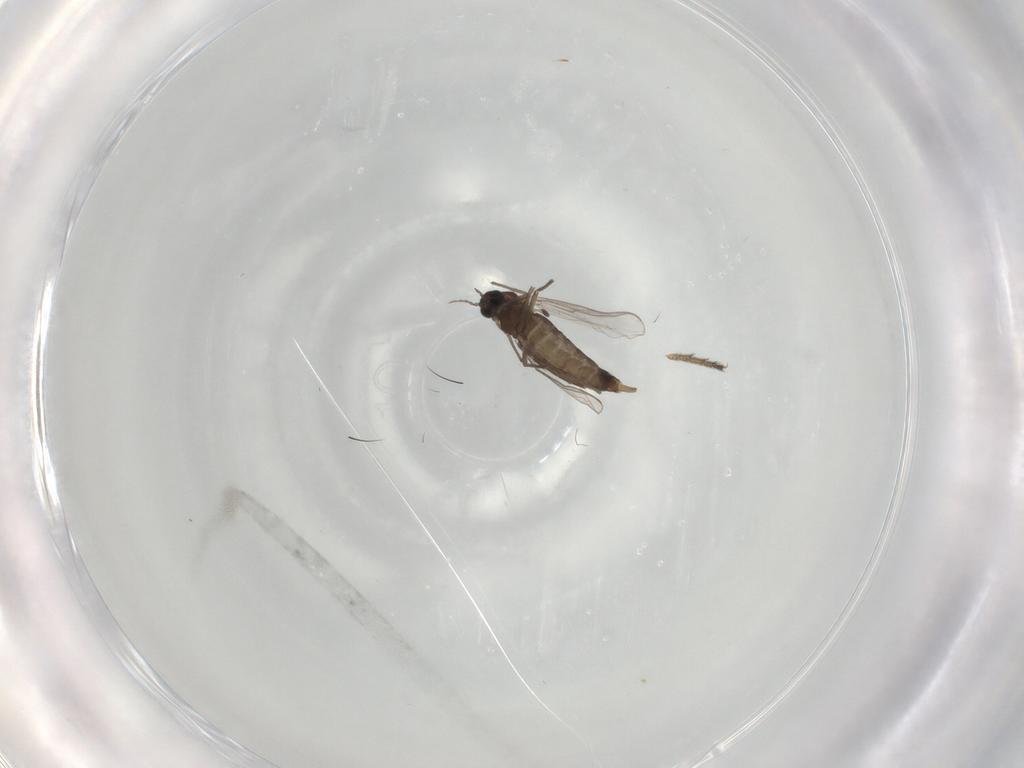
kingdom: Animalia
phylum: Arthropoda
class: Insecta
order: Diptera
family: Chironomidae
